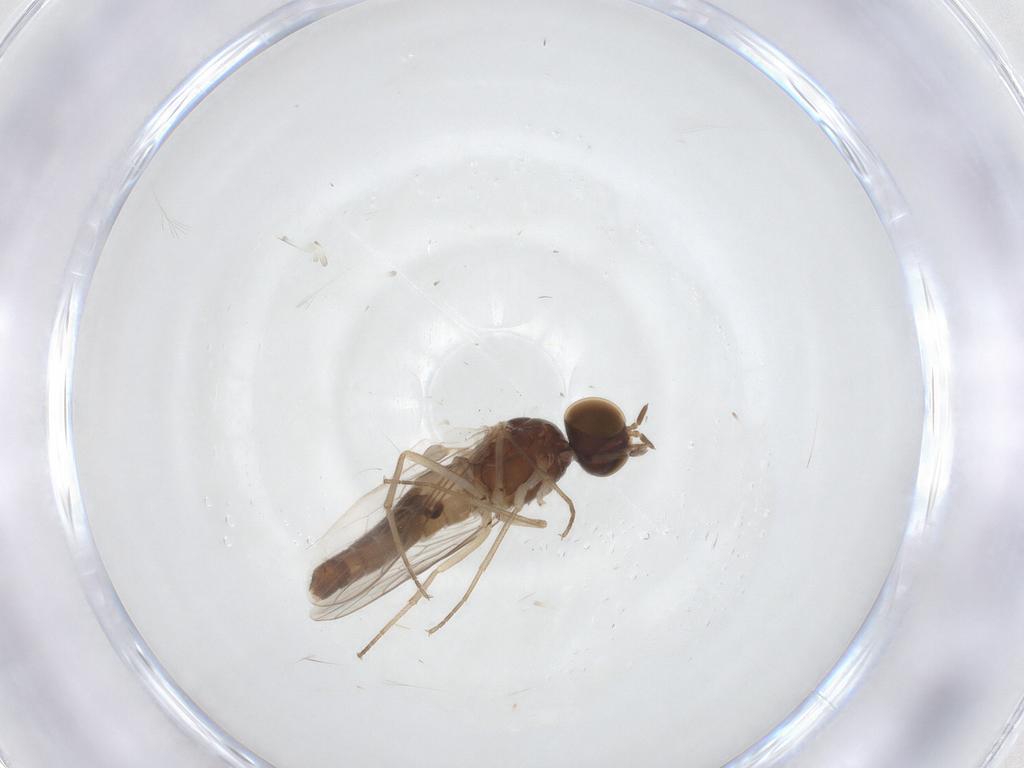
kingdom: Animalia
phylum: Arthropoda
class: Insecta
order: Diptera
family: Scenopinidae
